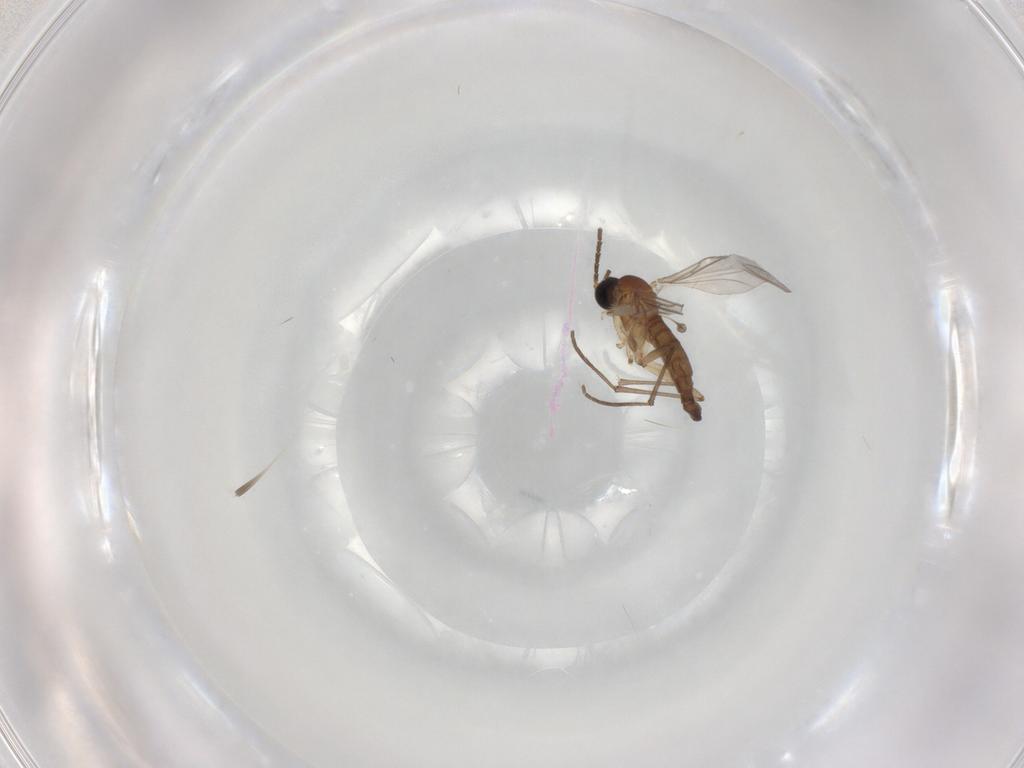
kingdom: Animalia
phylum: Arthropoda
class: Insecta
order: Diptera
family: Sciaridae
